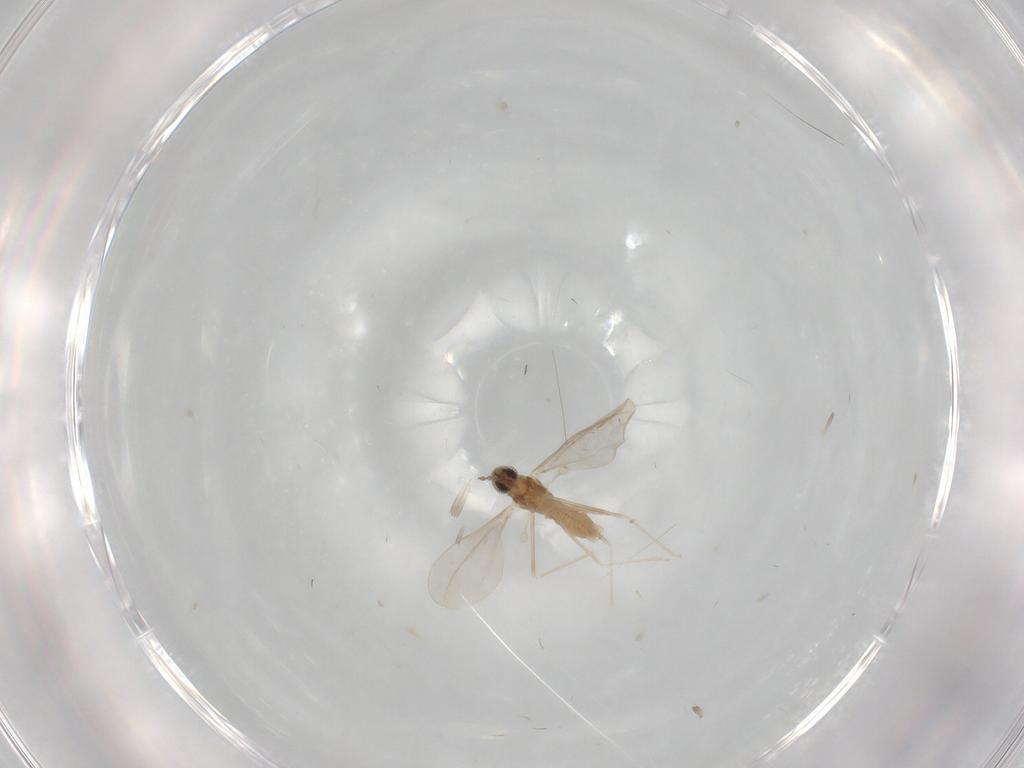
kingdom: Animalia
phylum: Arthropoda
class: Insecta
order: Diptera
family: Cecidomyiidae
